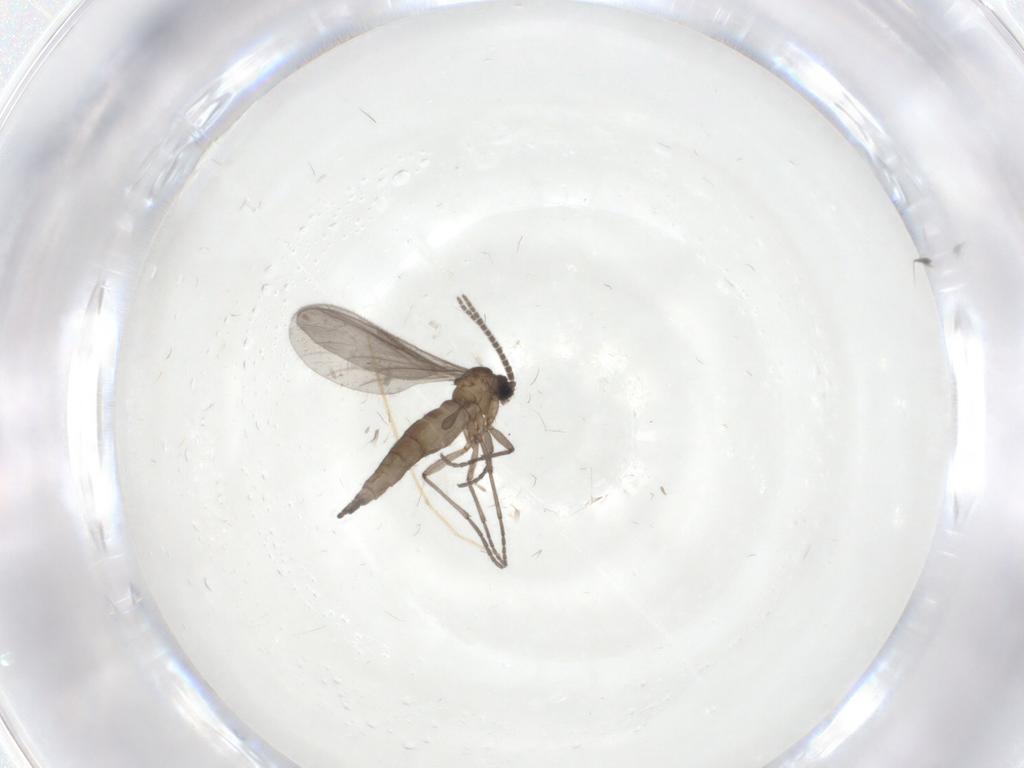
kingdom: Animalia
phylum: Arthropoda
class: Insecta
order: Diptera
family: Sciaridae
